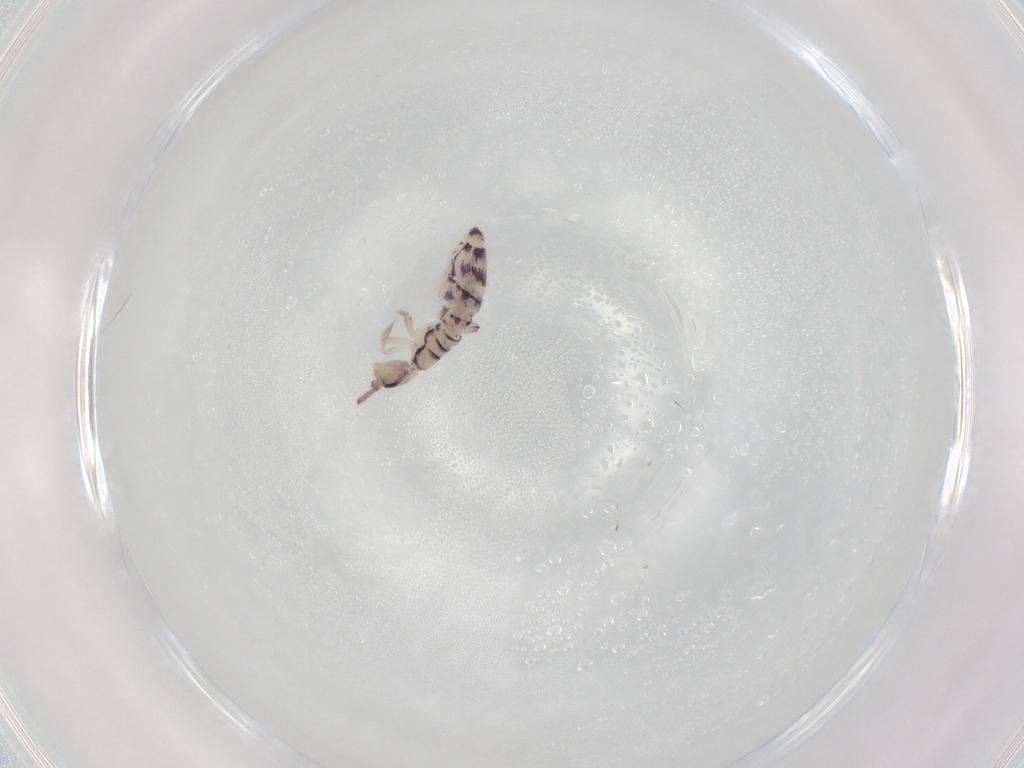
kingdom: Animalia
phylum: Arthropoda
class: Collembola
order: Entomobryomorpha
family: Entomobryidae
